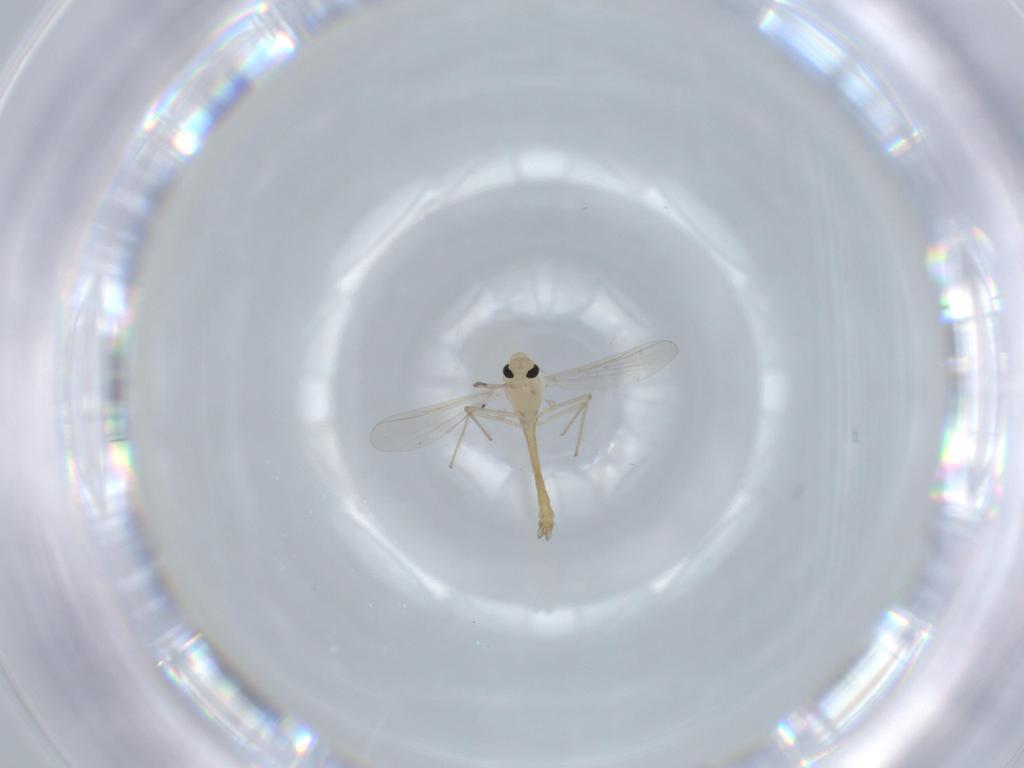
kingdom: Animalia
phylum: Arthropoda
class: Insecta
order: Diptera
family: Chironomidae
